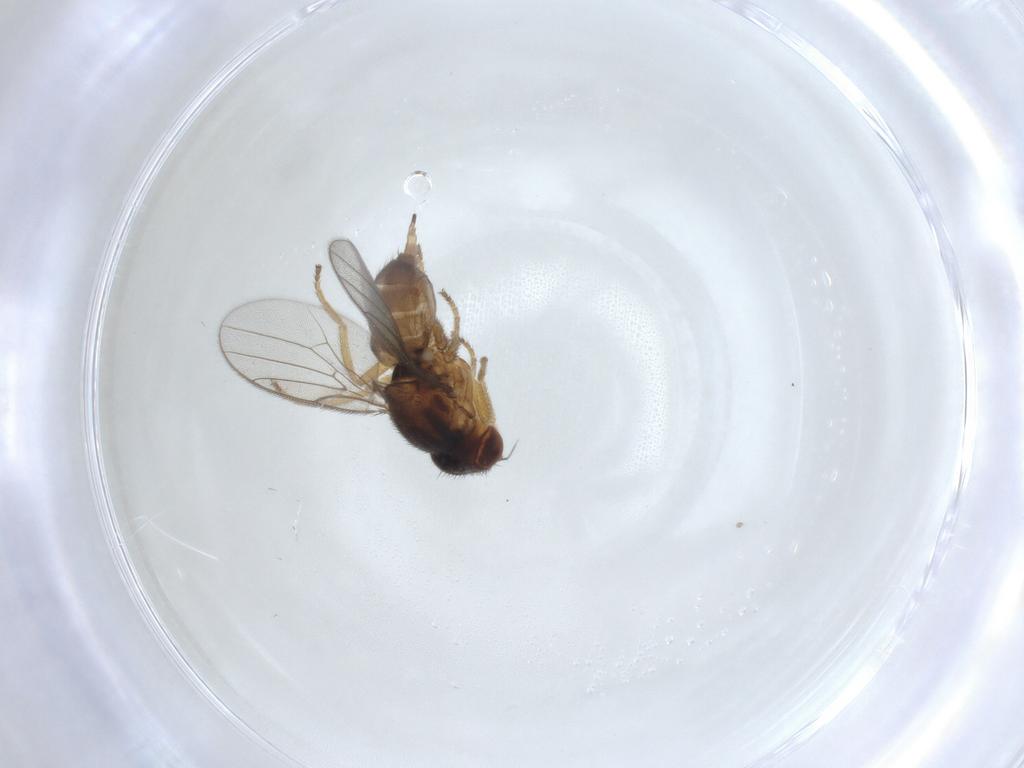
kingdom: Animalia
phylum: Arthropoda
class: Insecta
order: Diptera
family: Chloropidae
